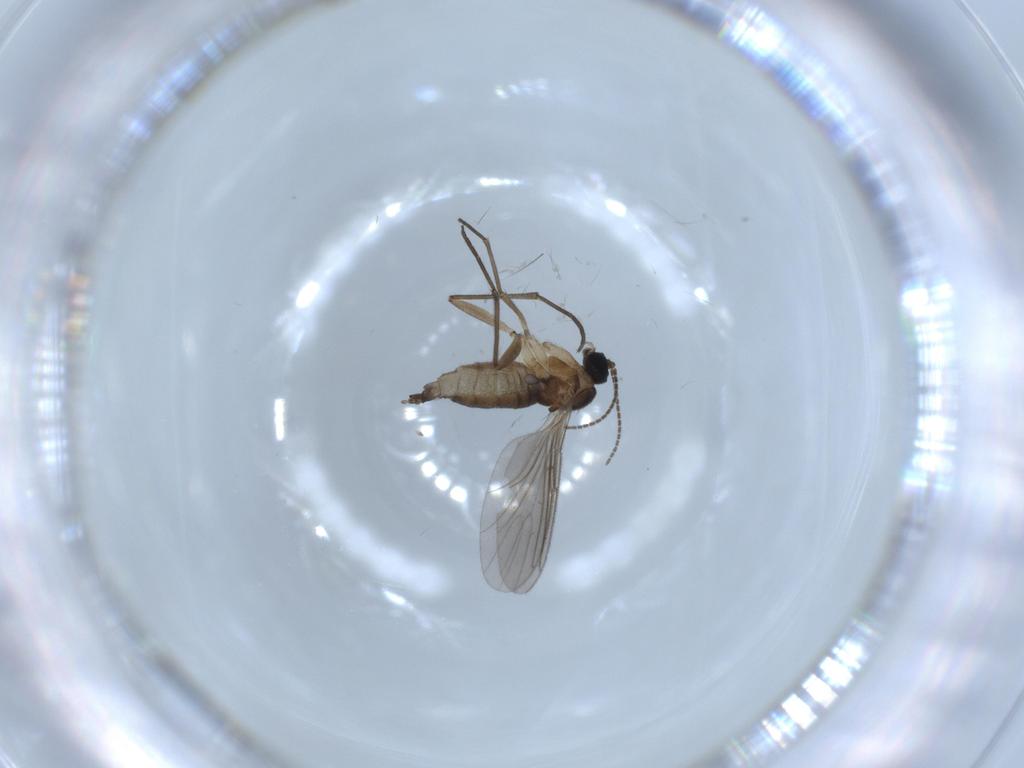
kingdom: Animalia
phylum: Arthropoda
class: Insecta
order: Diptera
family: Sciaridae
